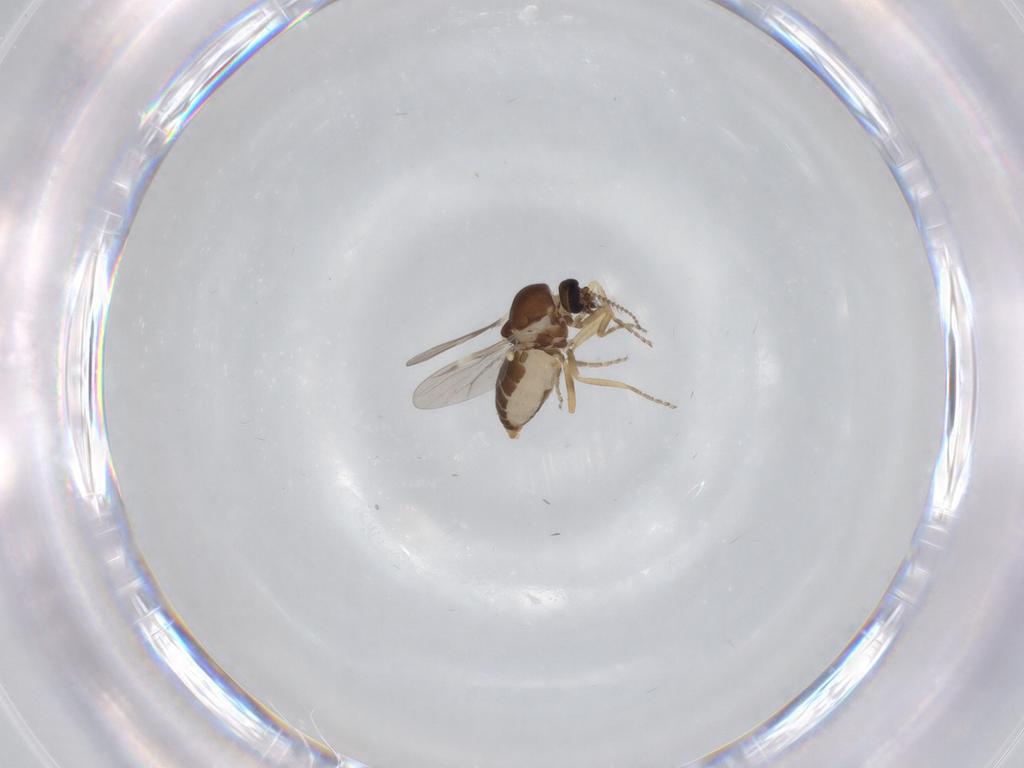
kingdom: Animalia
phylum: Arthropoda
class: Insecta
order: Diptera
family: Ceratopogonidae
